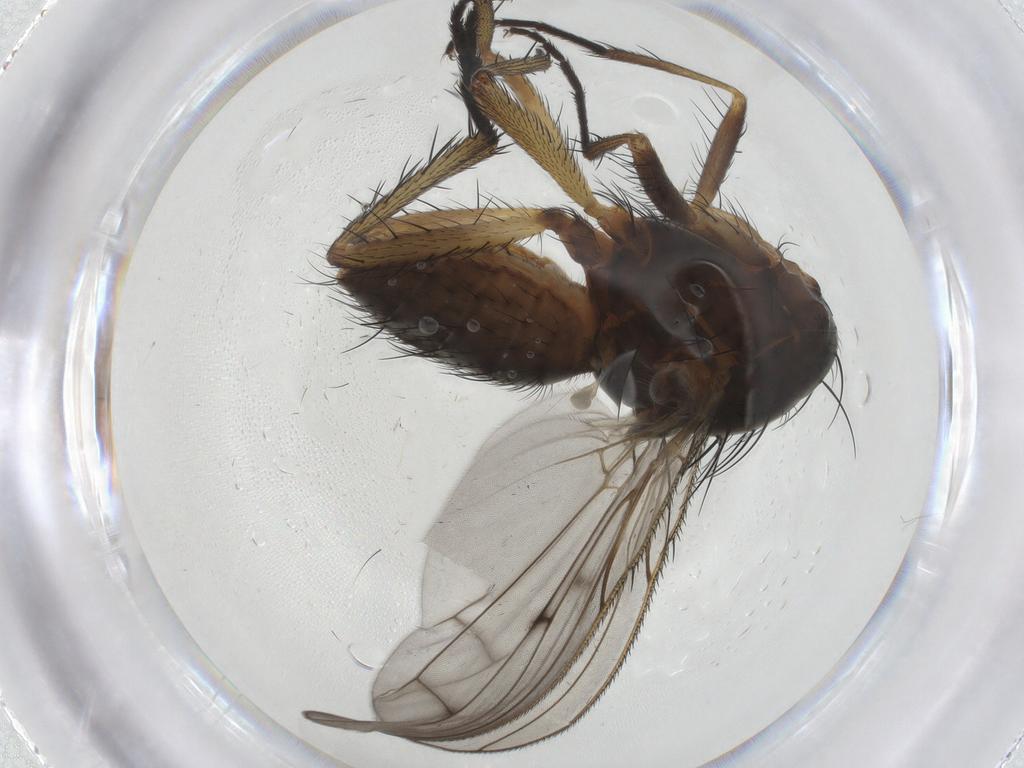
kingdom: Animalia
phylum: Arthropoda
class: Insecta
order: Diptera
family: Anthomyiidae
